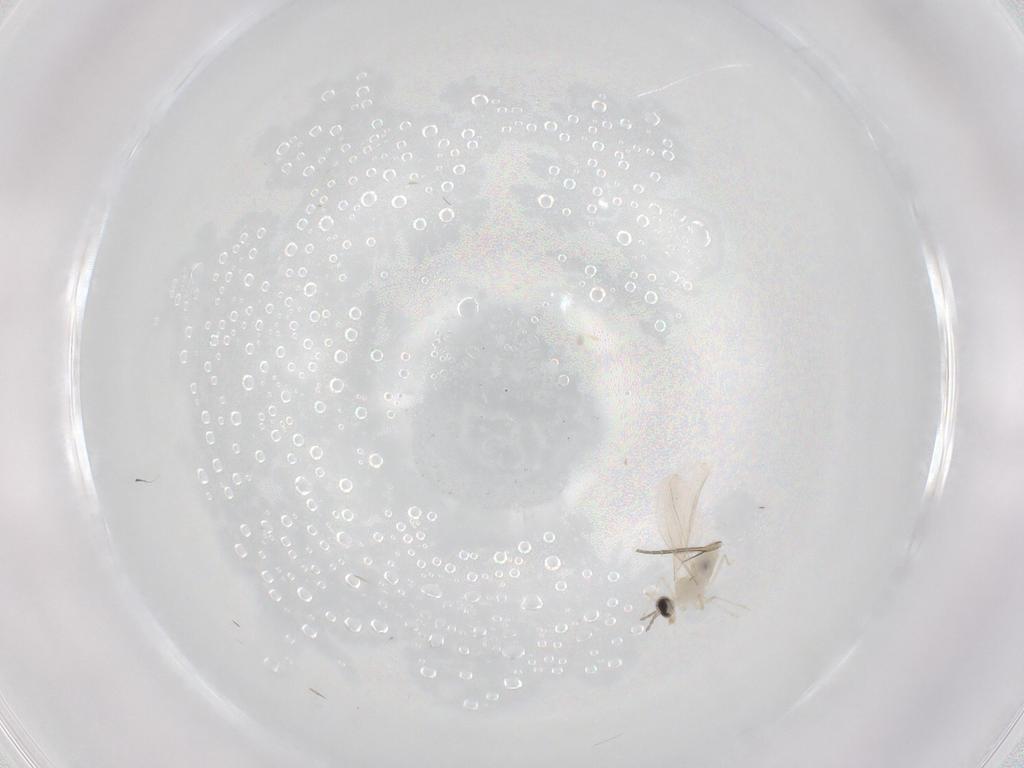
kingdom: Animalia
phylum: Arthropoda
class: Insecta
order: Diptera
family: Phoridae
